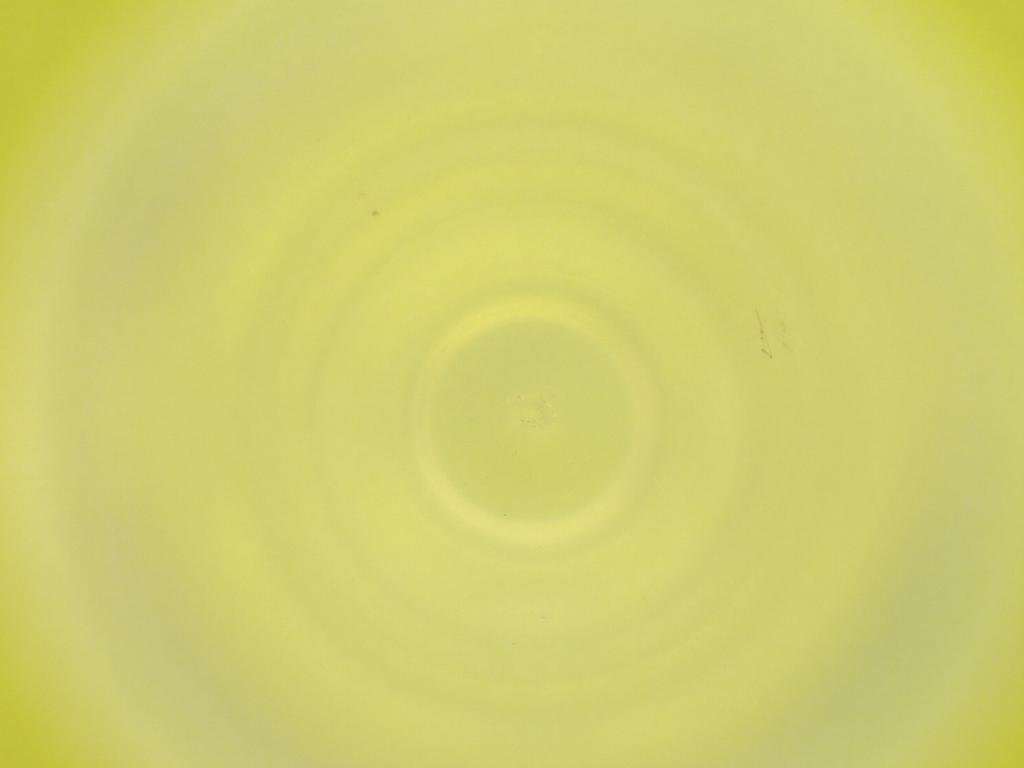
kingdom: Animalia
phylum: Arthropoda
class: Insecta
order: Diptera
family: Cecidomyiidae
